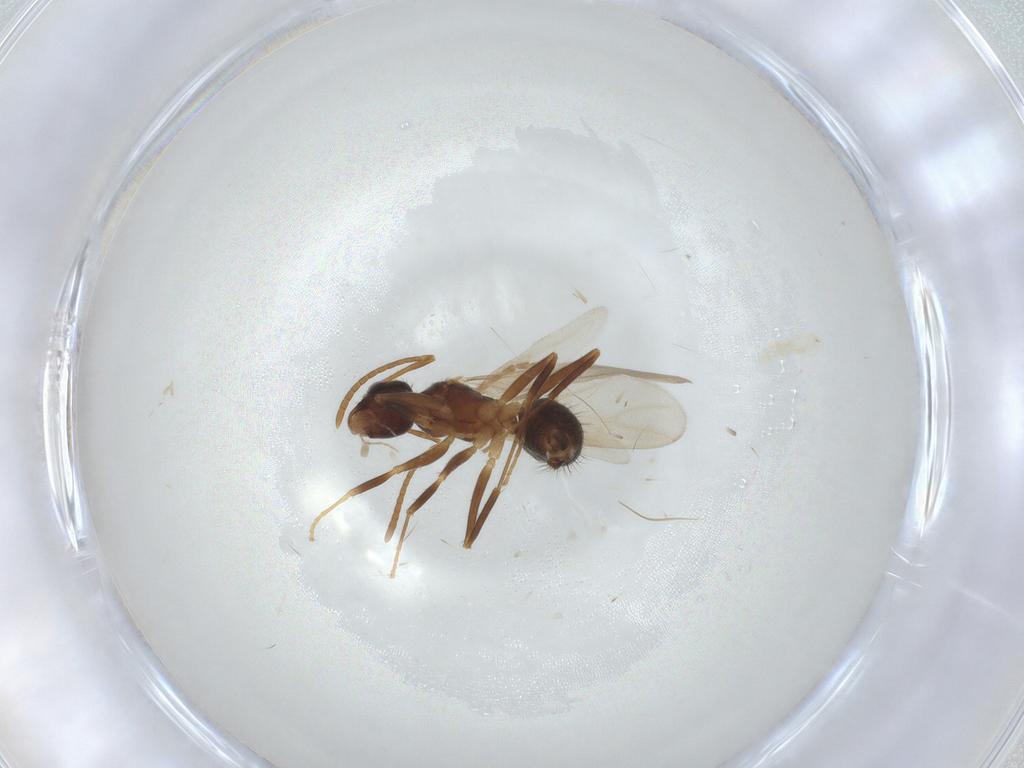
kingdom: Animalia
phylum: Arthropoda
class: Insecta
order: Hymenoptera
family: Formicidae
